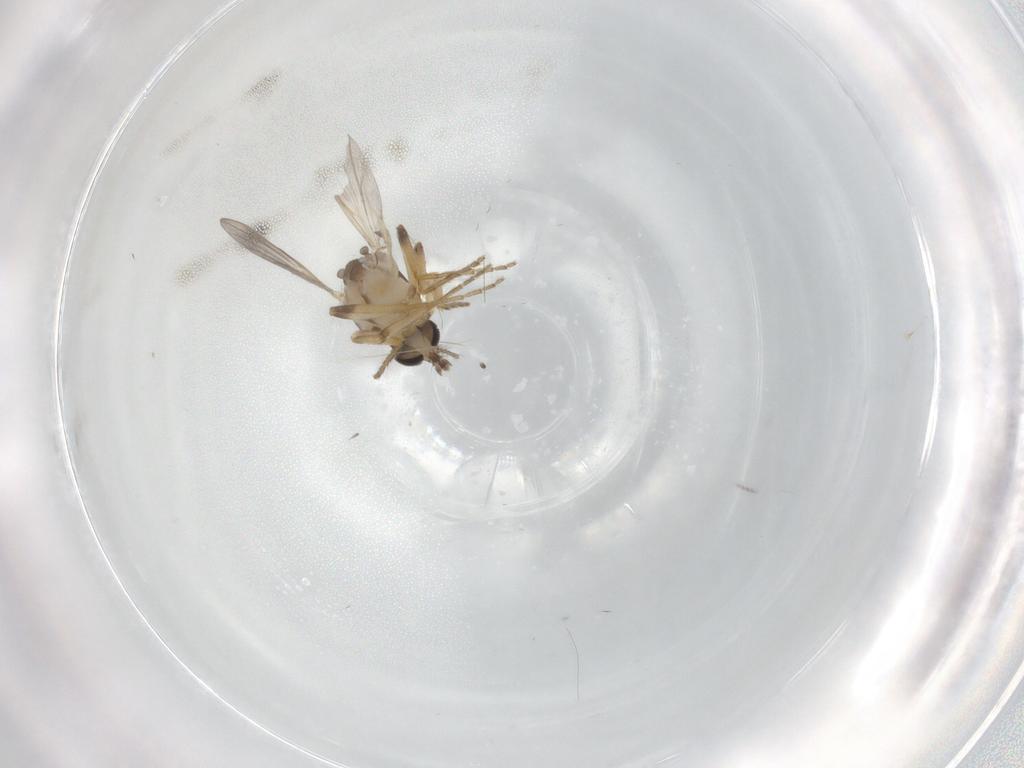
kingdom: Animalia
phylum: Arthropoda
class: Insecta
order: Diptera
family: Ceratopogonidae
